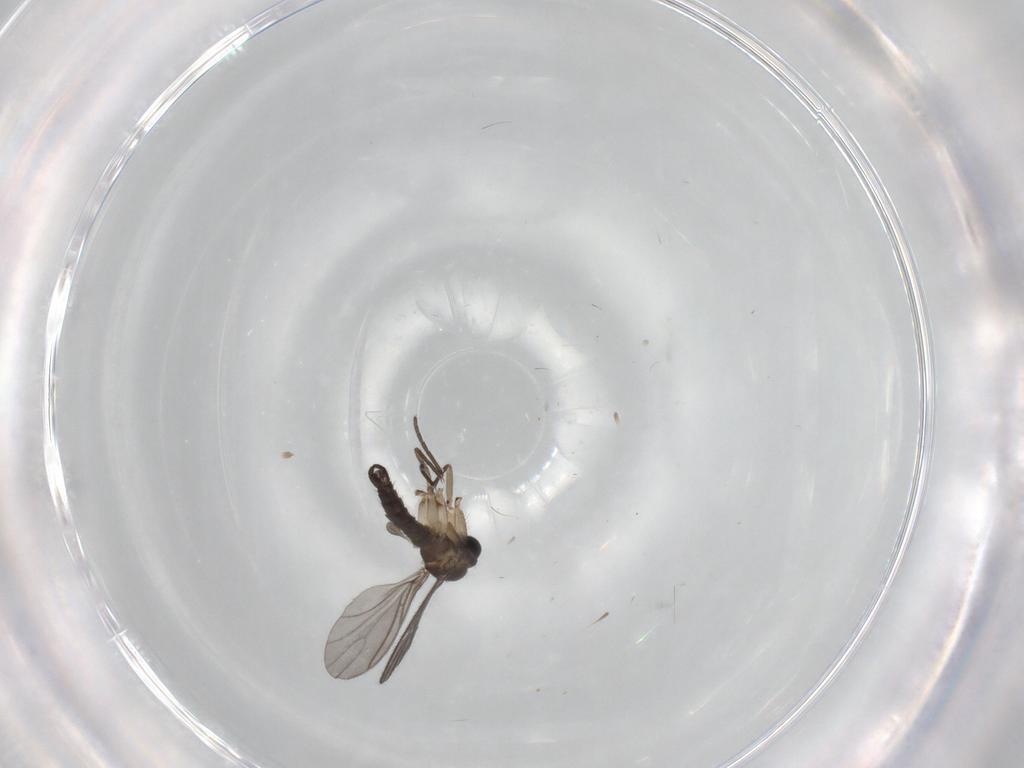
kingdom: Animalia
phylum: Arthropoda
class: Insecta
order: Diptera
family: Sciaridae
